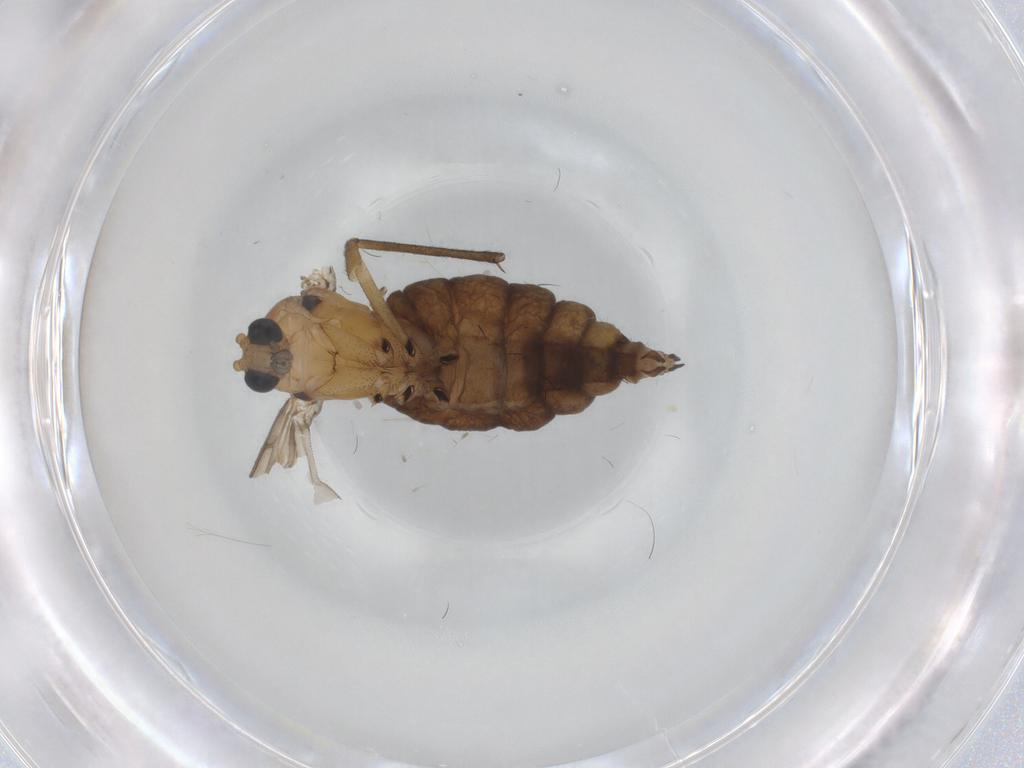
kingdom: Animalia
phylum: Arthropoda
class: Insecta
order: Diptera
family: Sciaridae
